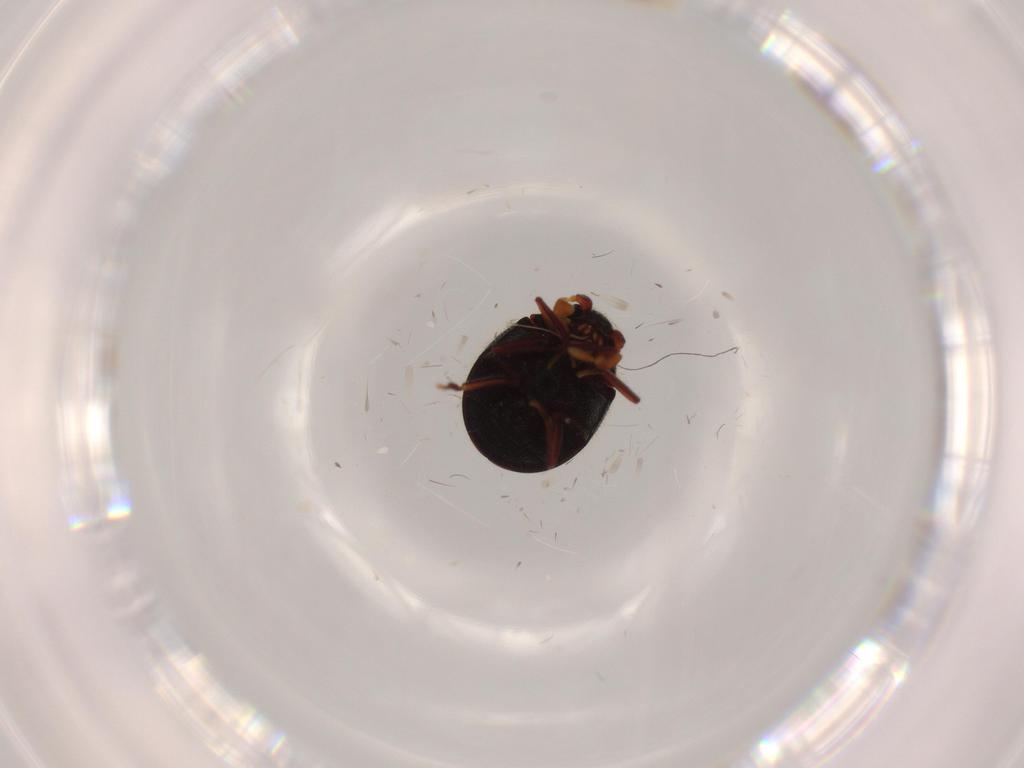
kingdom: Animalia
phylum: Arthropoda
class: Insecta
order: Coleoptera
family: Ptinidae
